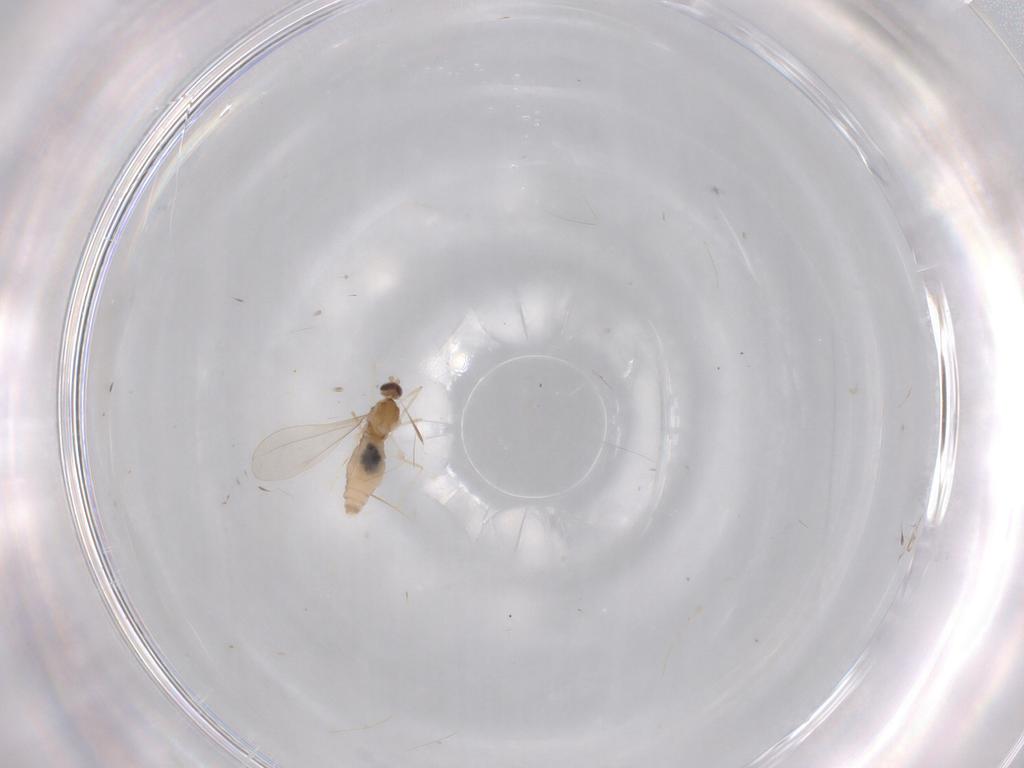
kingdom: Animalia
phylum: Arthropoda
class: Insecta
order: Diptera
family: Cecidomyiidae
